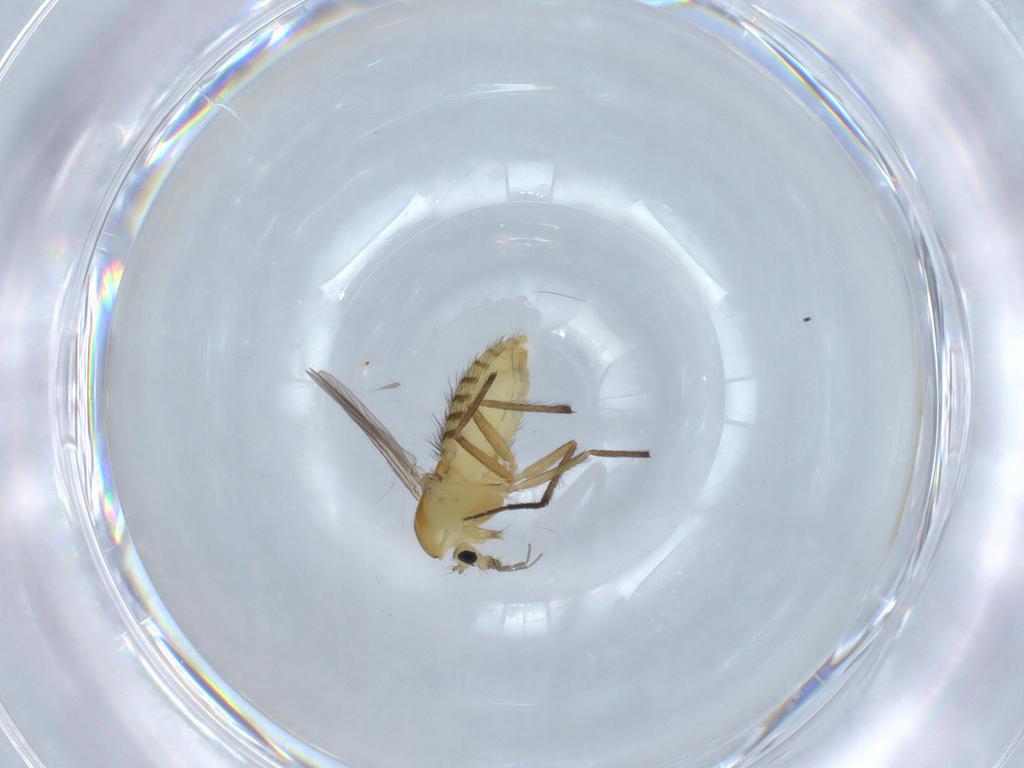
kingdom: Animalia
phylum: Arthropoda
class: Insecta
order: Diptera
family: Chironomidae
